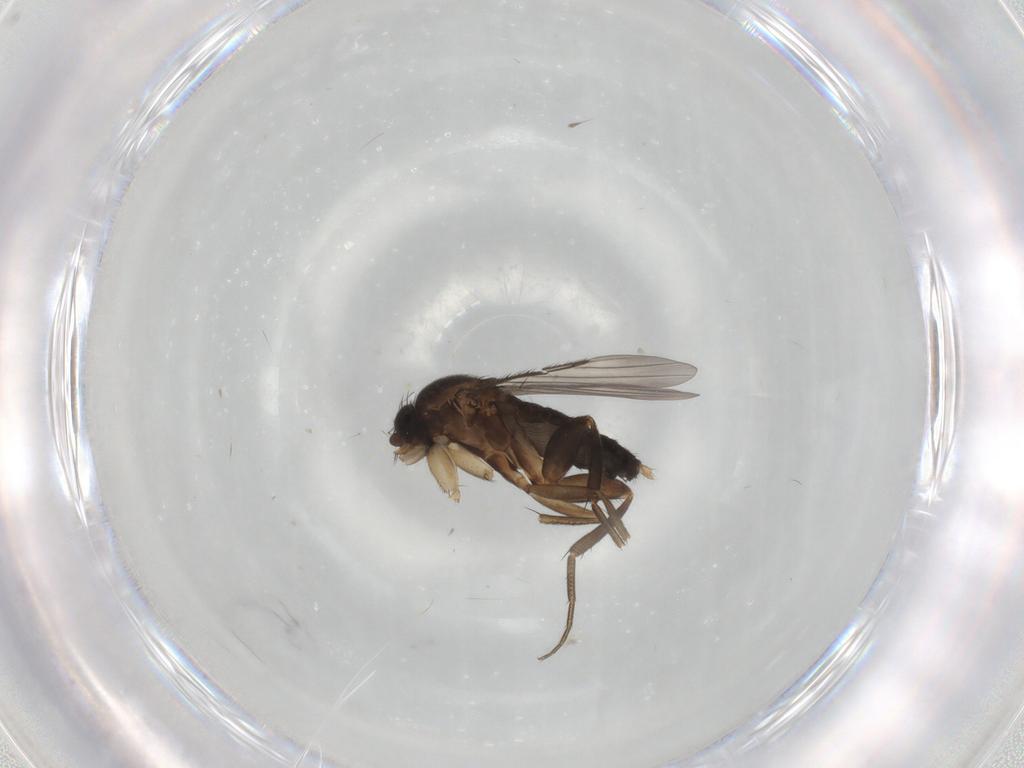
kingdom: Animalia
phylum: Arthropoda
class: Insecta
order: Diptera
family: Phoridae
